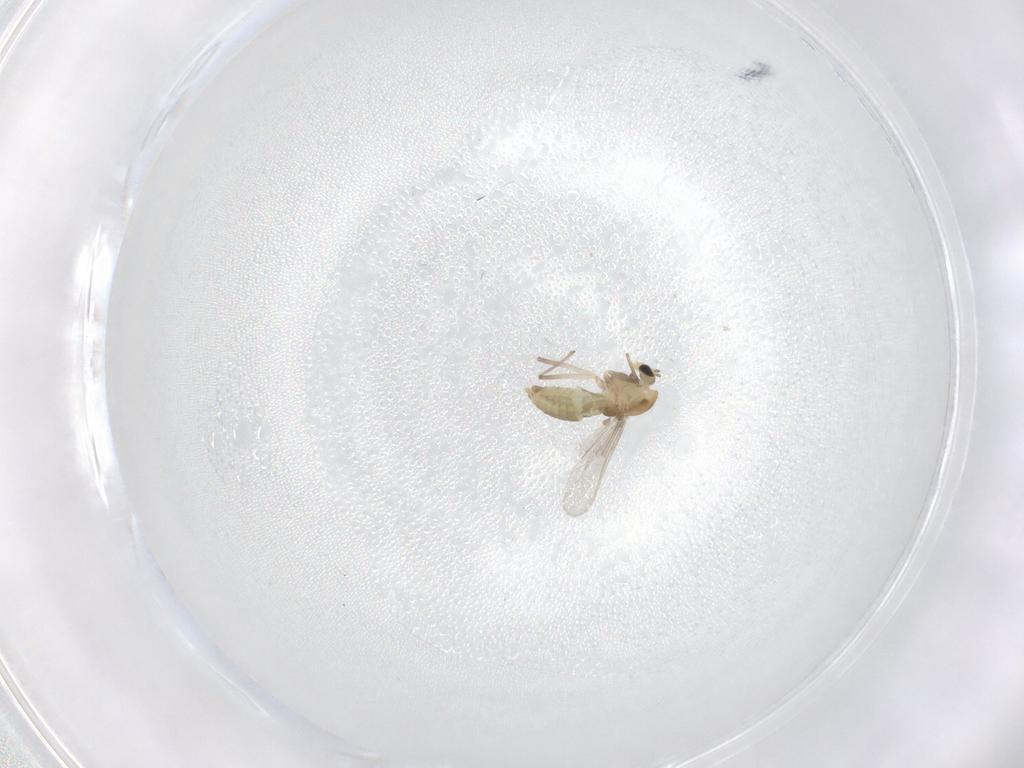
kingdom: Animalia
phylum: Arthropoda
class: Insecta
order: Diptera
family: Chironomidae
